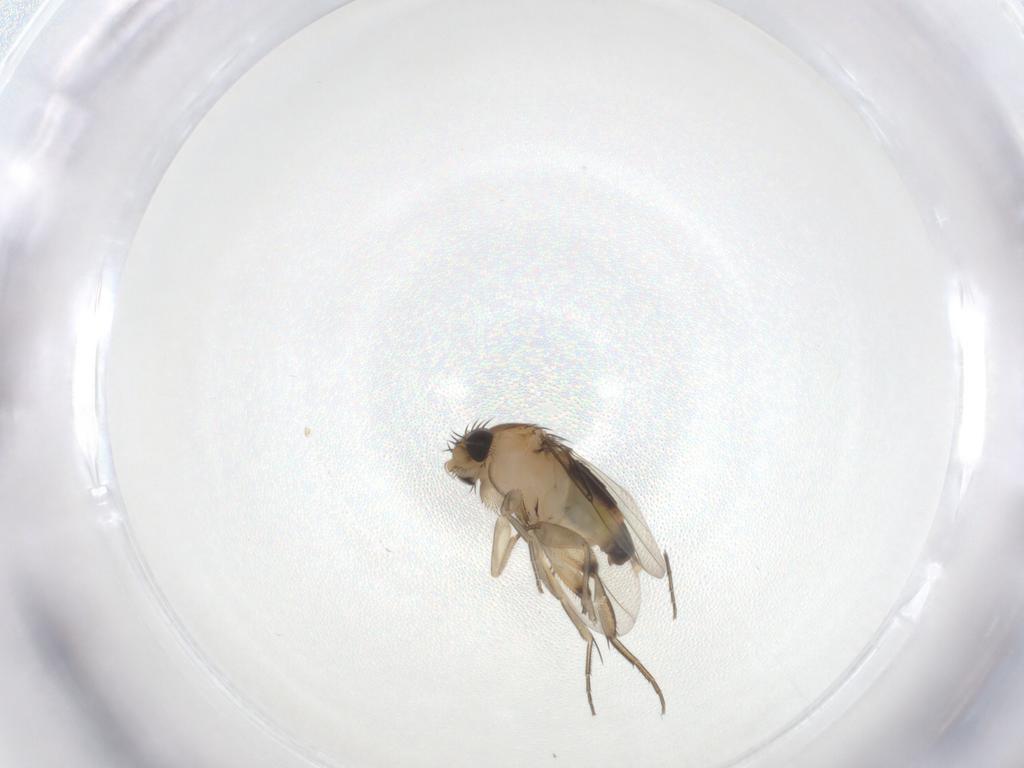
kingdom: Animalia
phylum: Arthropoda
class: Insecta
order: Diptera
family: Phoridae
